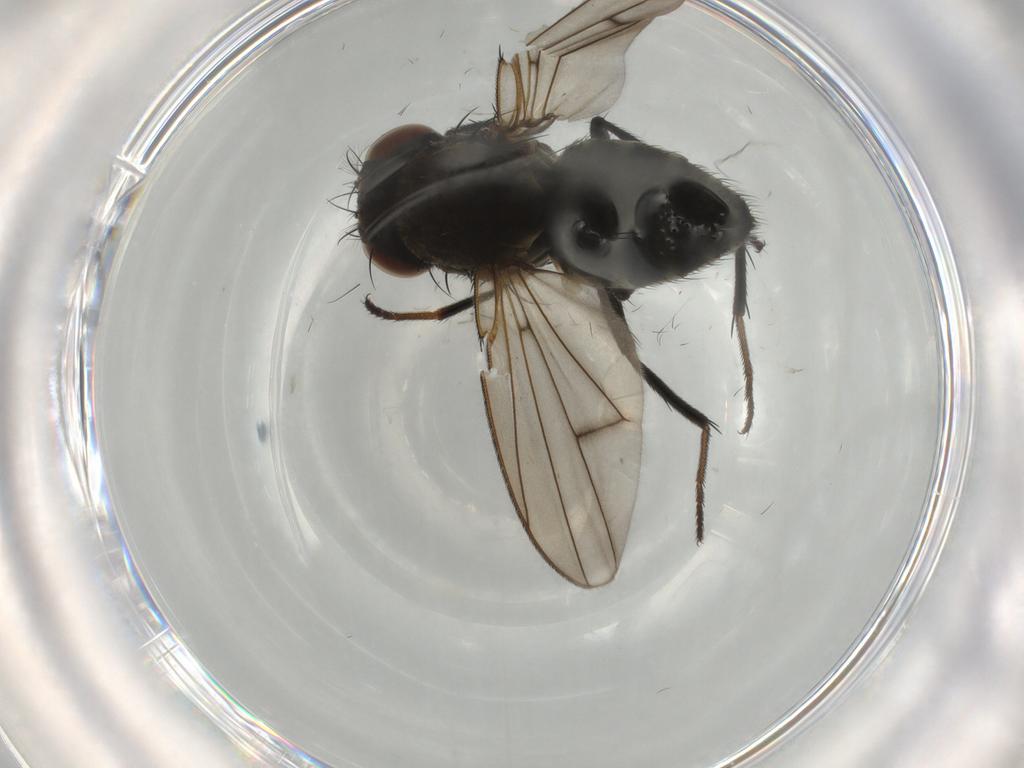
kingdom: Animalia
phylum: Arthropoda
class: Insecta
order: Diptera
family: Ephydridae
